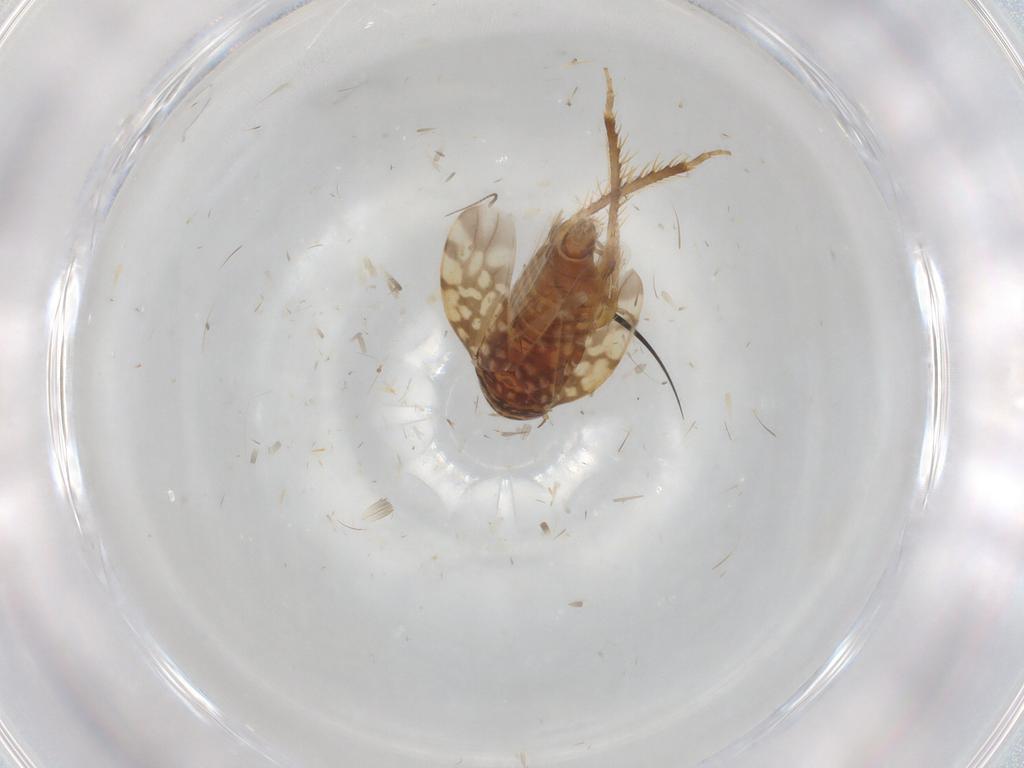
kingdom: Animalia
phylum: Arthropoda
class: Insecta
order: Hemiptera
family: Cicadellidae
